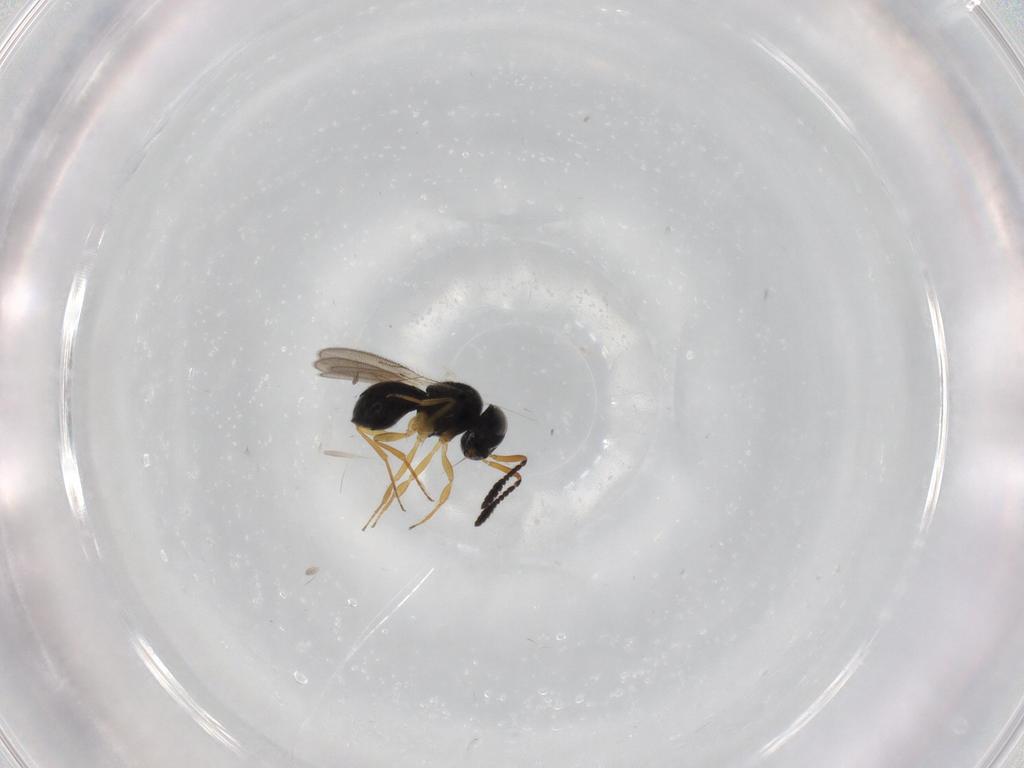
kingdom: Animalia
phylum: Arthropoda
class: Insecta
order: Hymenoptera
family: Scelionidae
